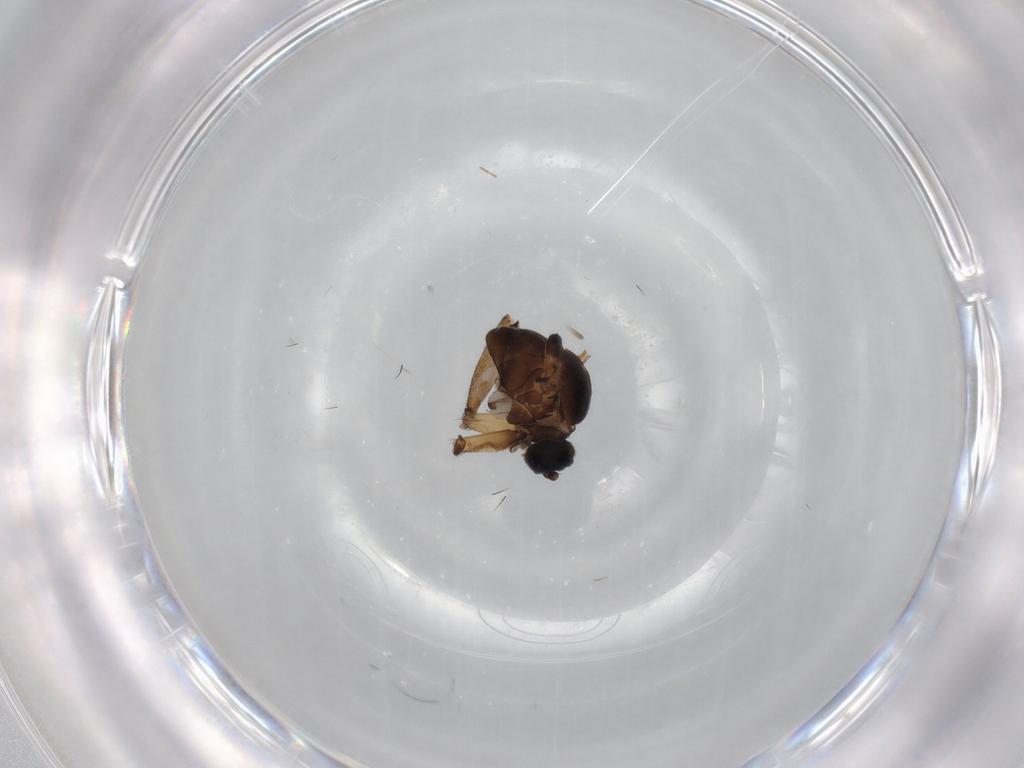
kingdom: Animalia
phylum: Arthropoda
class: Insecta
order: Diptera
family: Sciaridae
